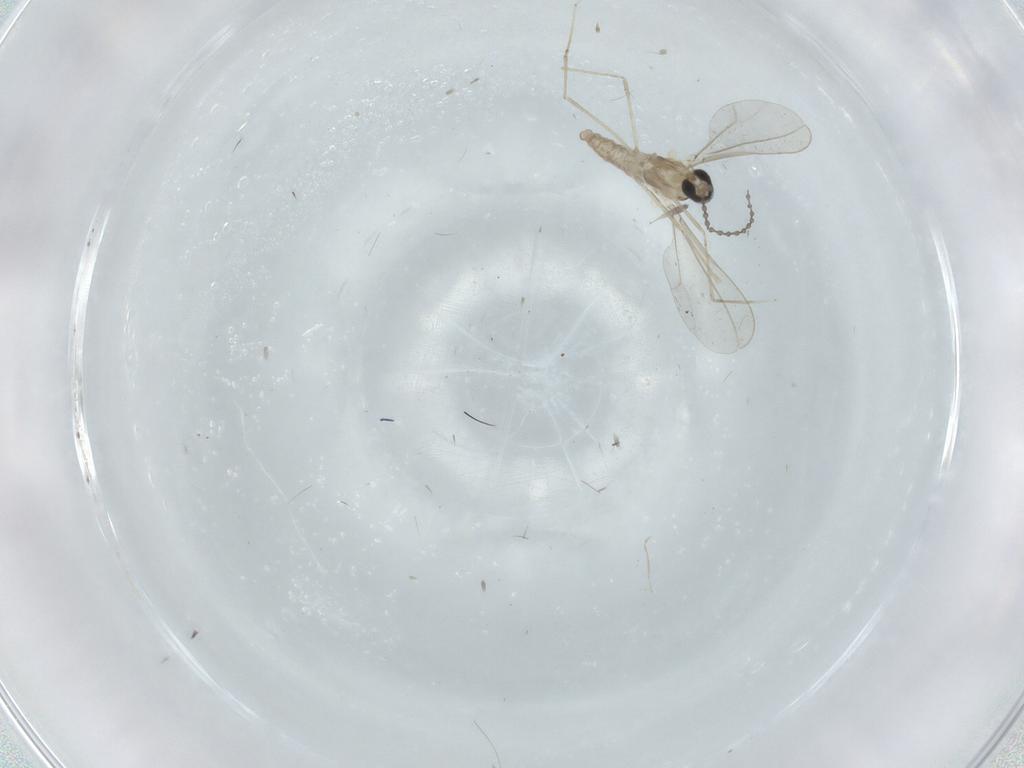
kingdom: Animalia
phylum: Arthropoda
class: Insecta
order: Diptera
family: Cecidomyiidae
